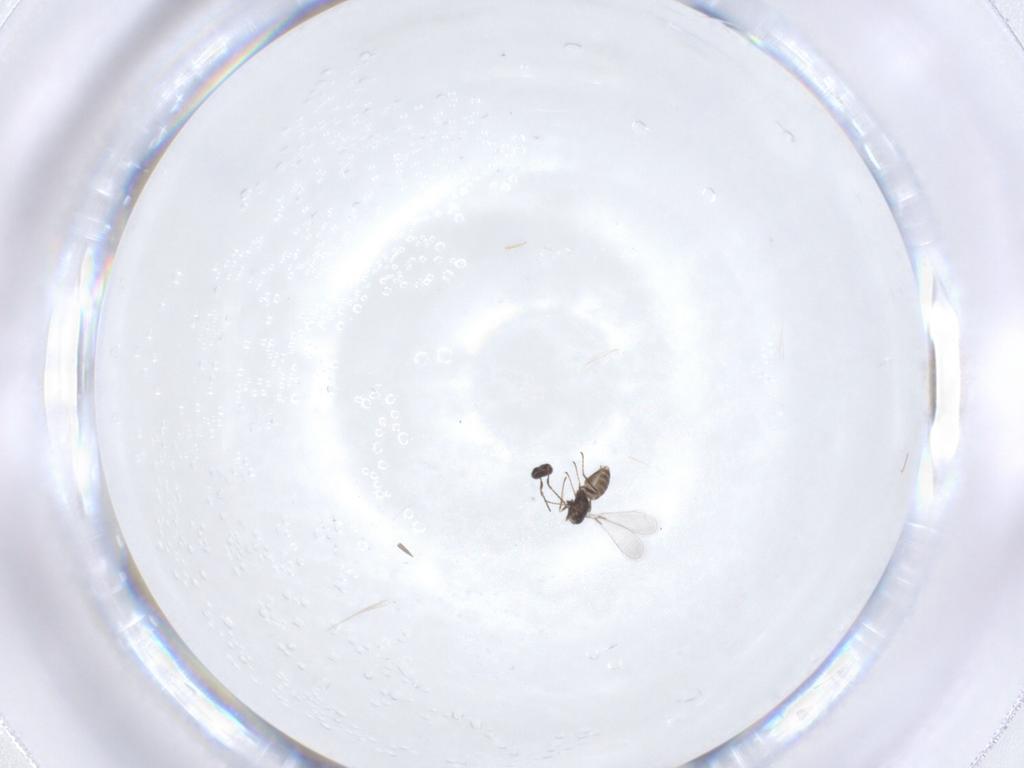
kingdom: Animalia
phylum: Arthropoda
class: Insecta
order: Hymenoptera
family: Mymaridae
